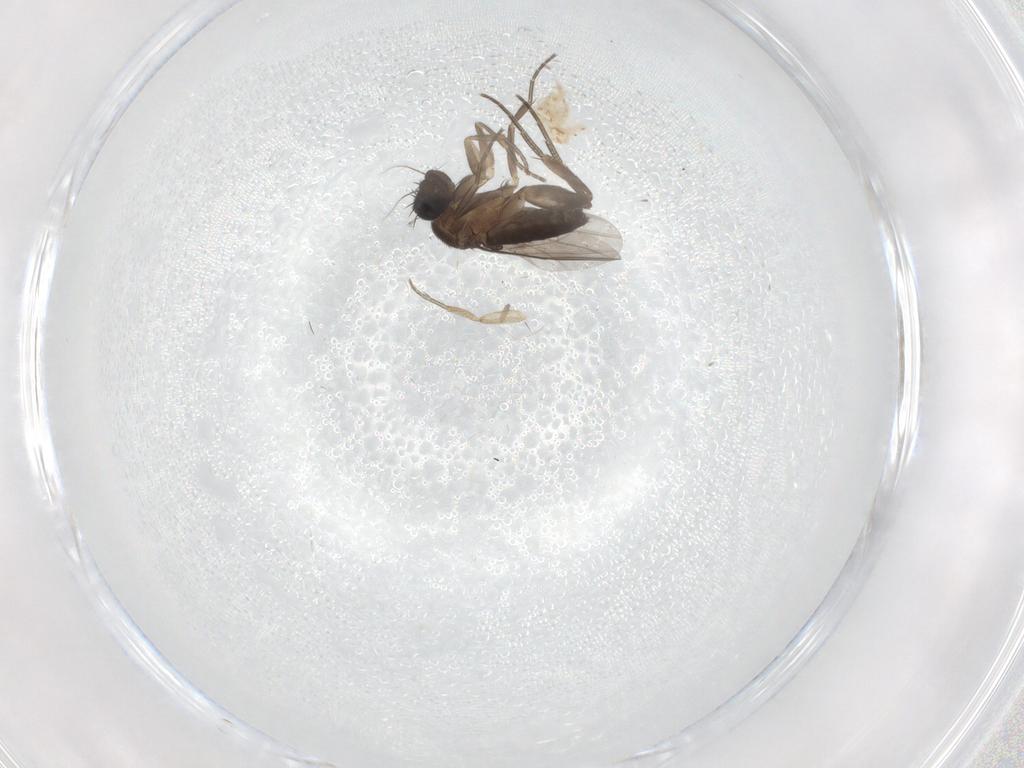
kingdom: Animalia
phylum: Arthropoda
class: Insecta
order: Diptera
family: Phoridae
